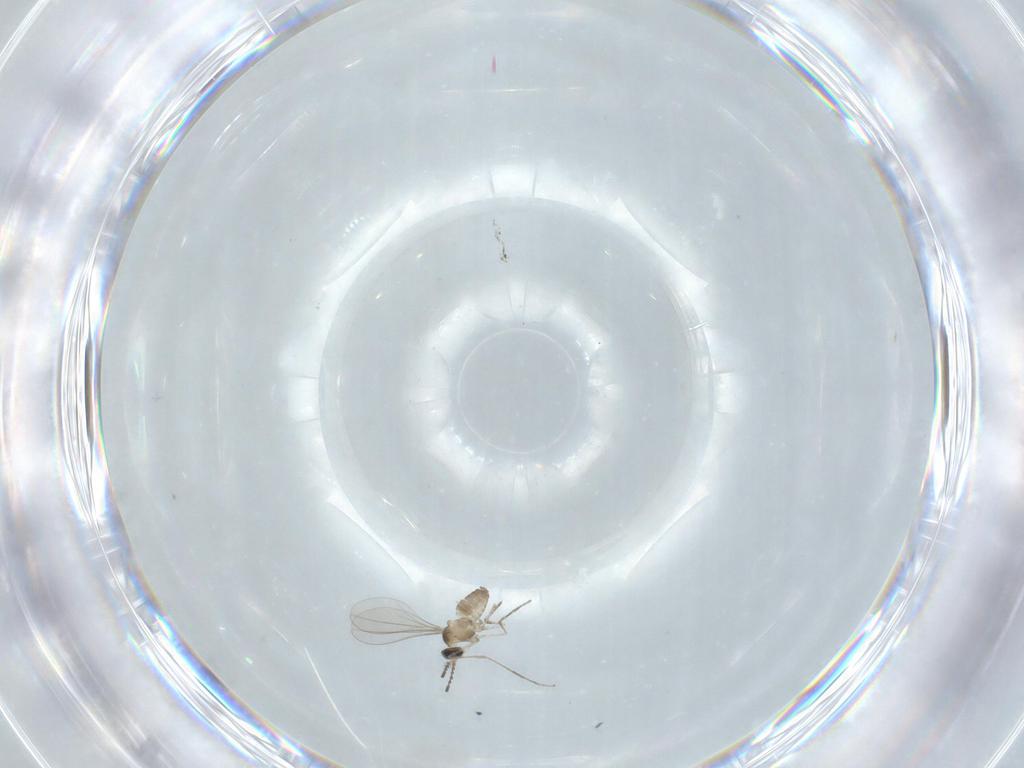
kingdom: Animalia
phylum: Arthropoda
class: Insecta
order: Diptera
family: Cecidomyiidae
